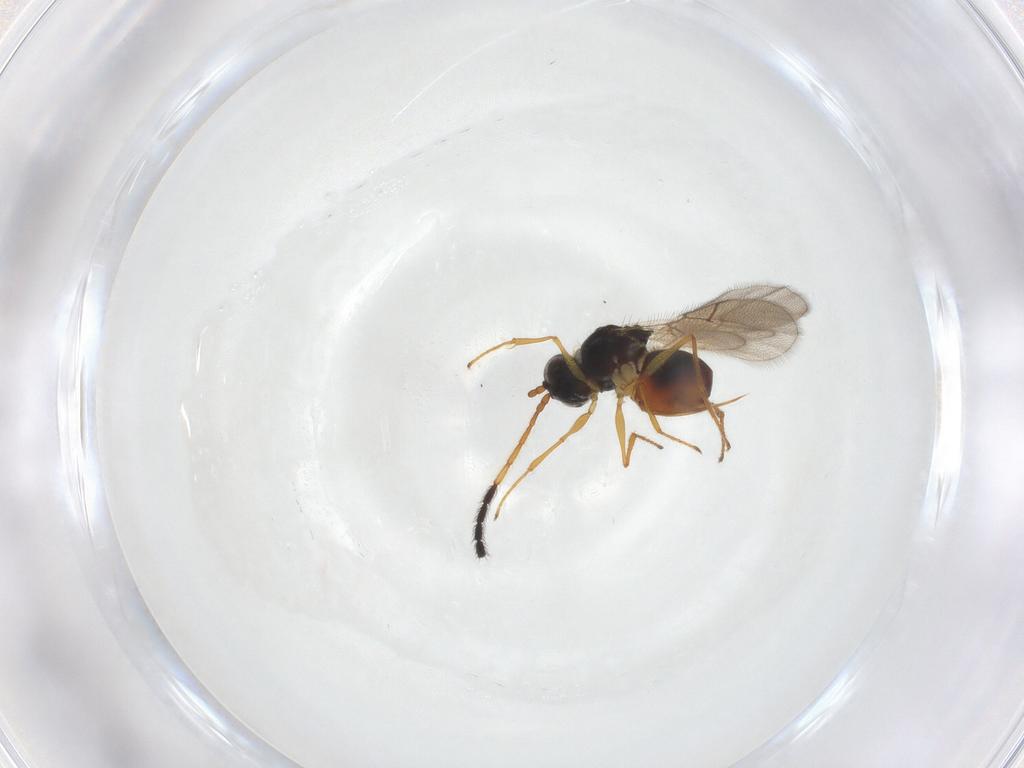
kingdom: Animalia
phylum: Arthropoda
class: Insecta
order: Hymenoptera
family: Figitidae
